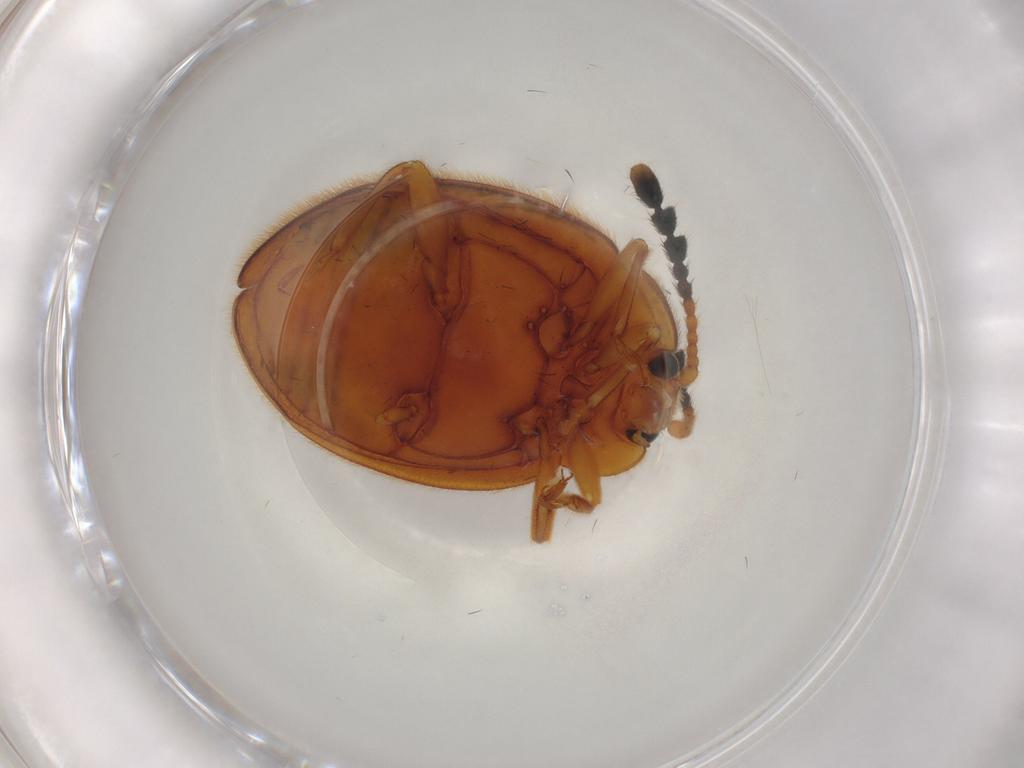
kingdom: Animalia
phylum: Arthropoda
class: Insecta
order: Coleoptera
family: Endomychidae
